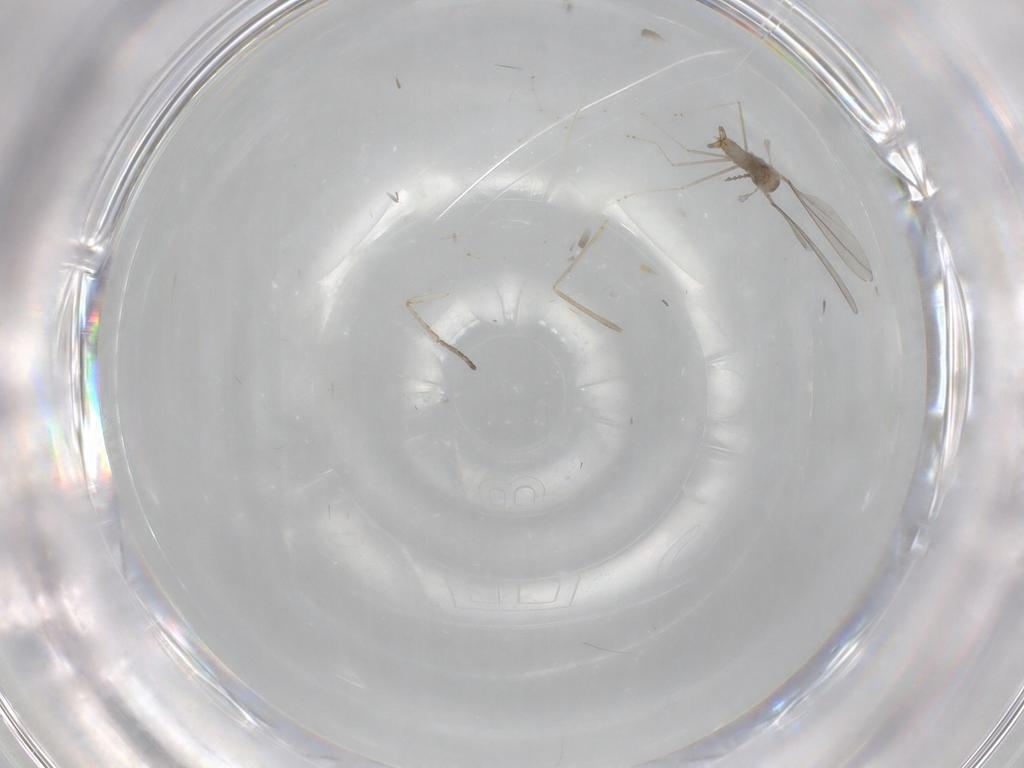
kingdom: Animalia
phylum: Arthropoda
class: Insecta
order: Diptera
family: Cecidomyiidae
